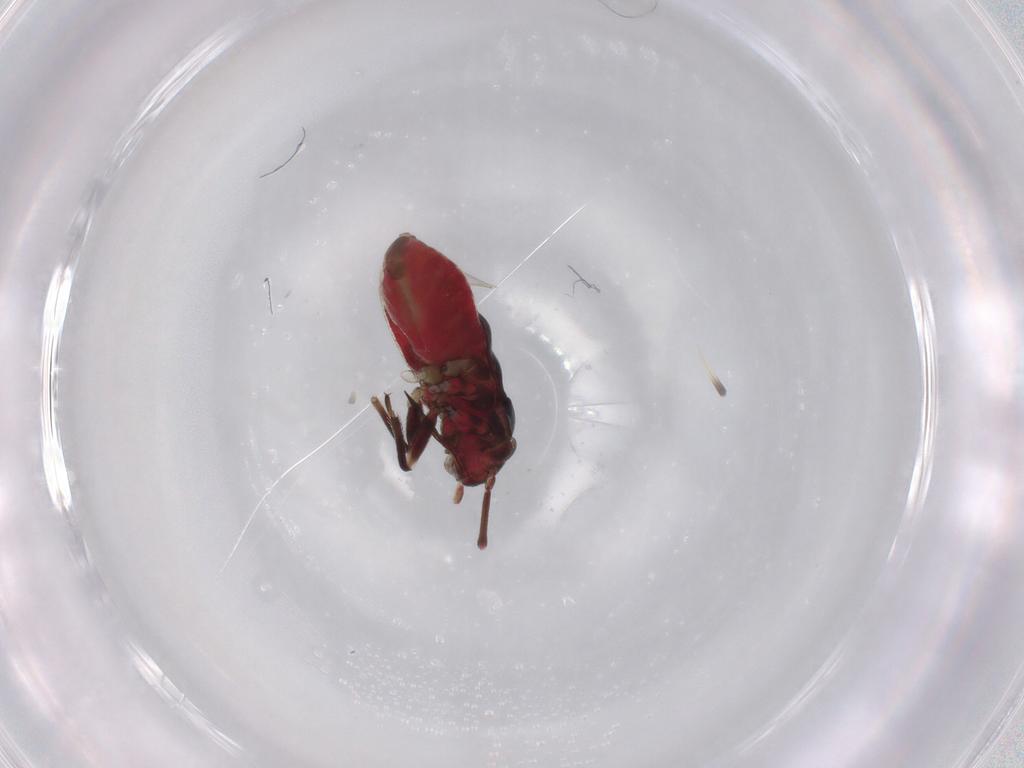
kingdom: Animalia
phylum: Arthropoda
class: Insecta
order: Hemiptera
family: Miridae
